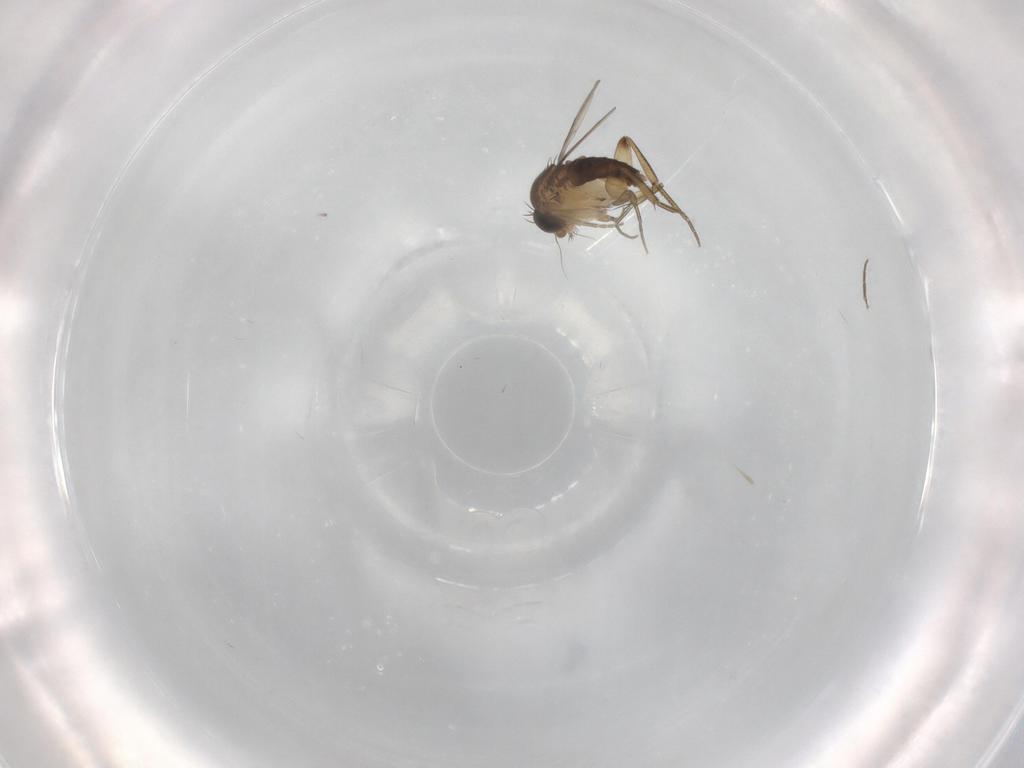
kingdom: Animalia
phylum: Arthropoda
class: Insecta
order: Diptera
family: Phoridae
